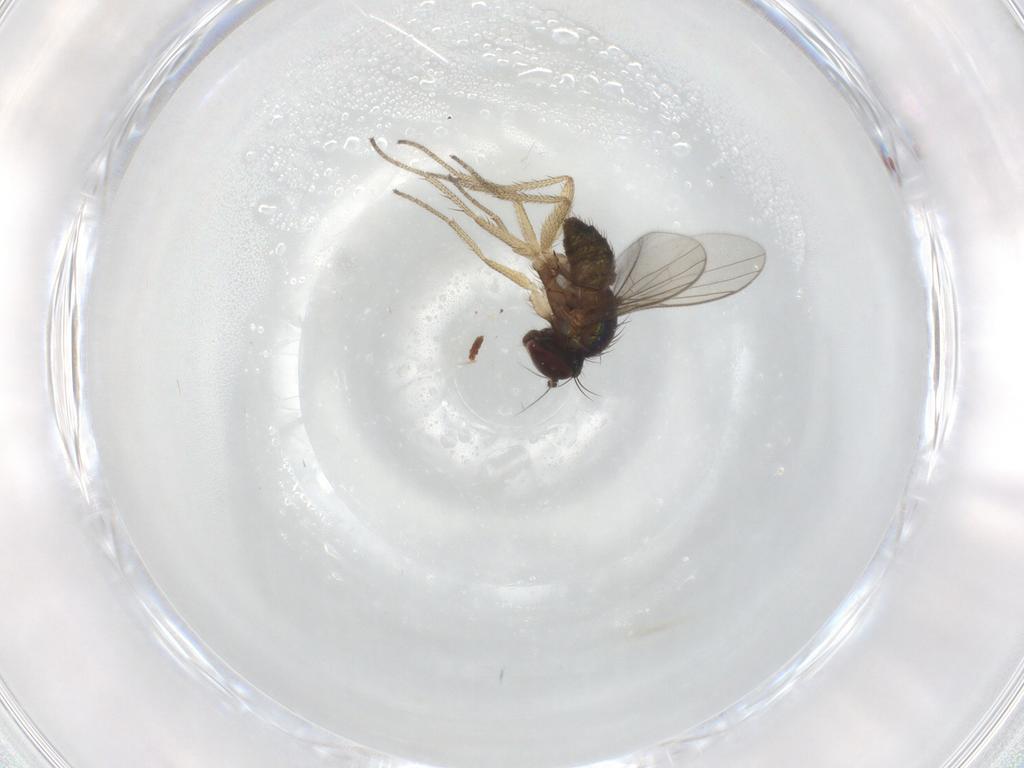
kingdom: Animalia
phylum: Arthropoda
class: Insecta
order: Diptera
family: Dolichopodidae
